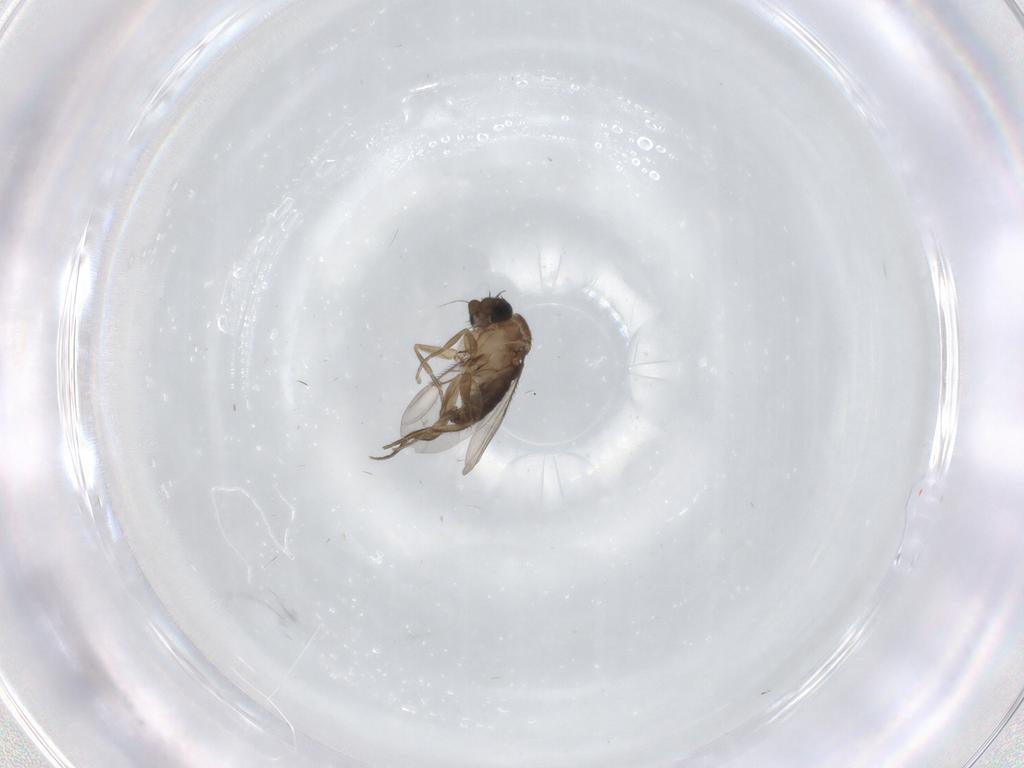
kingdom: Animalia
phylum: Arthropoda
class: Insecta
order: Diptera
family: Phoridae
